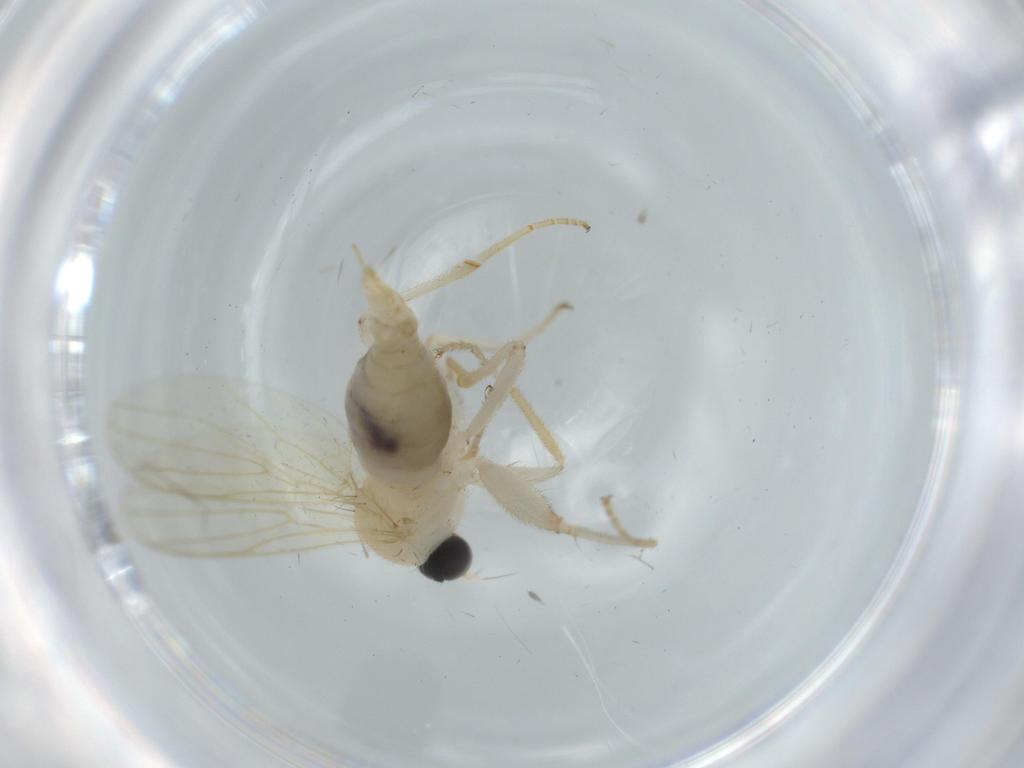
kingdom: Animalia
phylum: Arthropoda
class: Insecta
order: Diptera
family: Hybotidae
